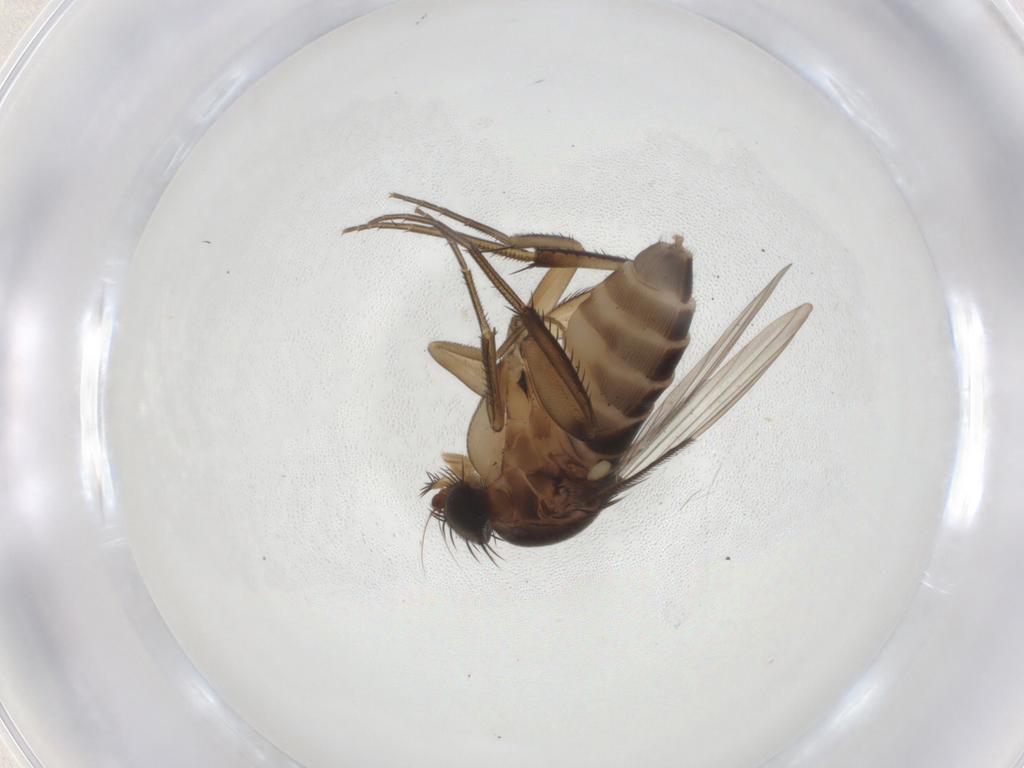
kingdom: Animalia
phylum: Arthropoda
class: Insecta
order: Diptera
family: Phoridae
